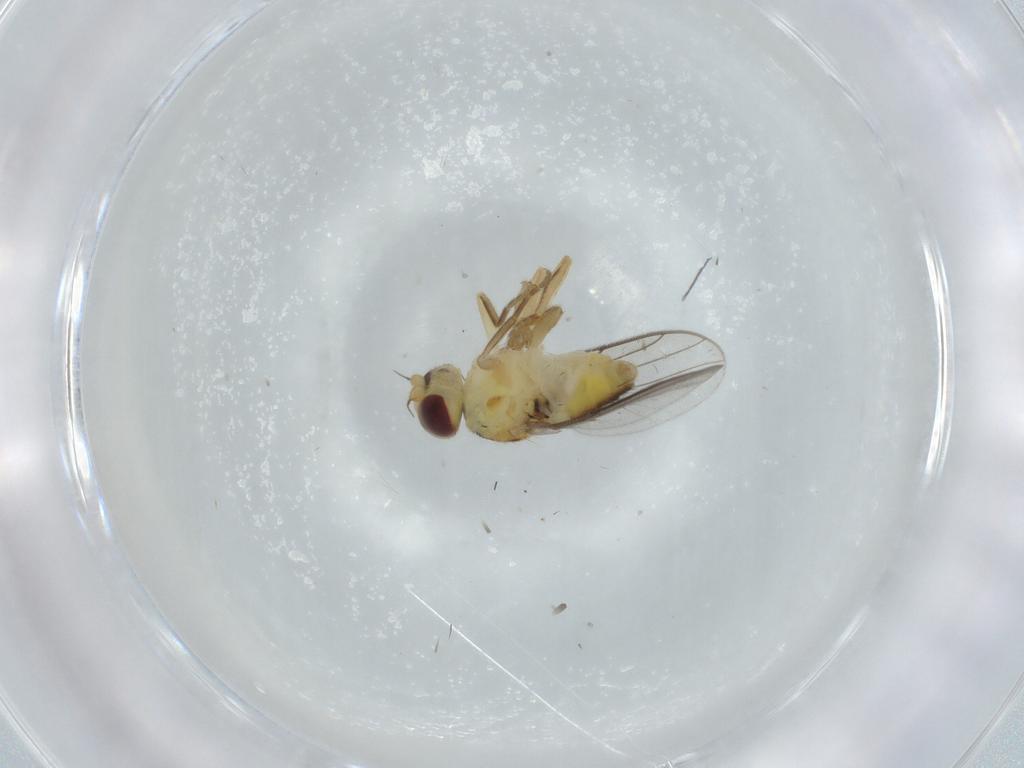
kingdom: Animalia
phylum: Arthropoda
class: Insecta
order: Diptera
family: Chloropidae
